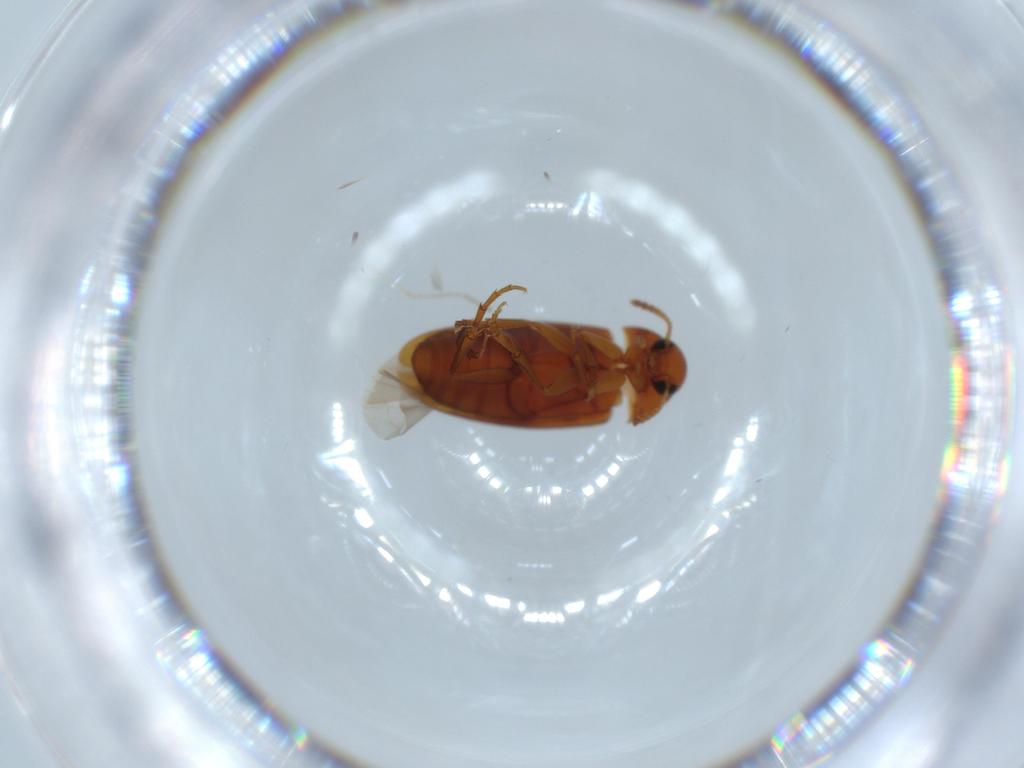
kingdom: Animalia
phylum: Arthropoda
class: Insecta
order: Coleoptera
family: Scraptiidae
